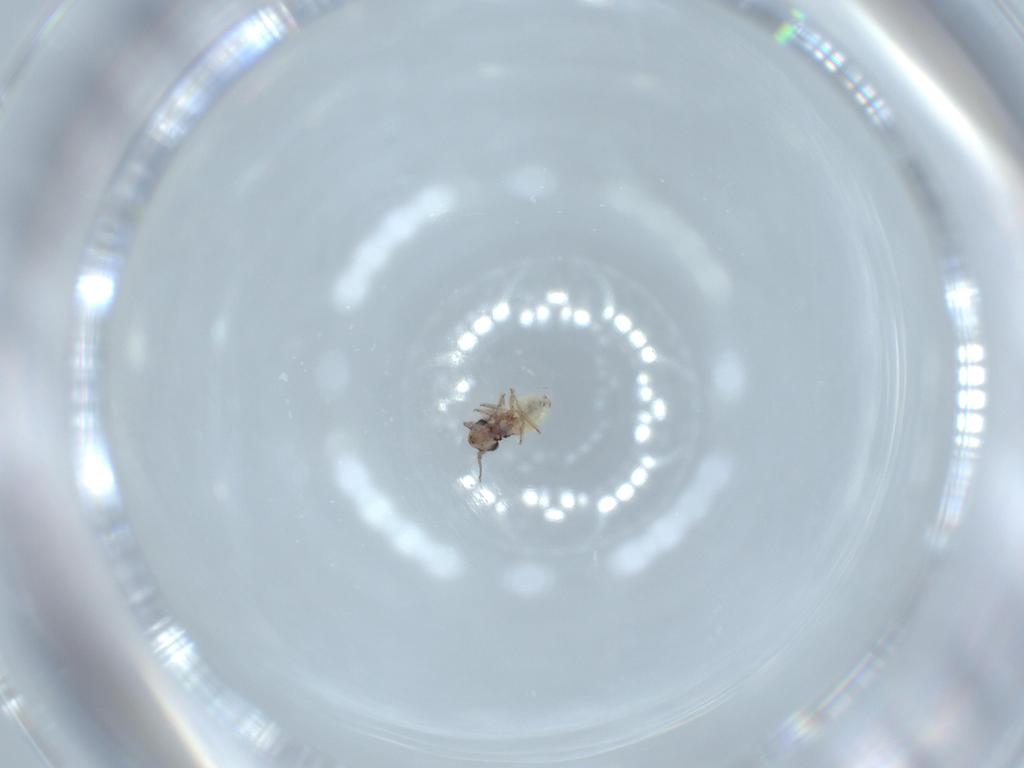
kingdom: Animalia
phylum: Arthropoda
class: Insecta
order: Psocodea
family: Lepidopsocidae
